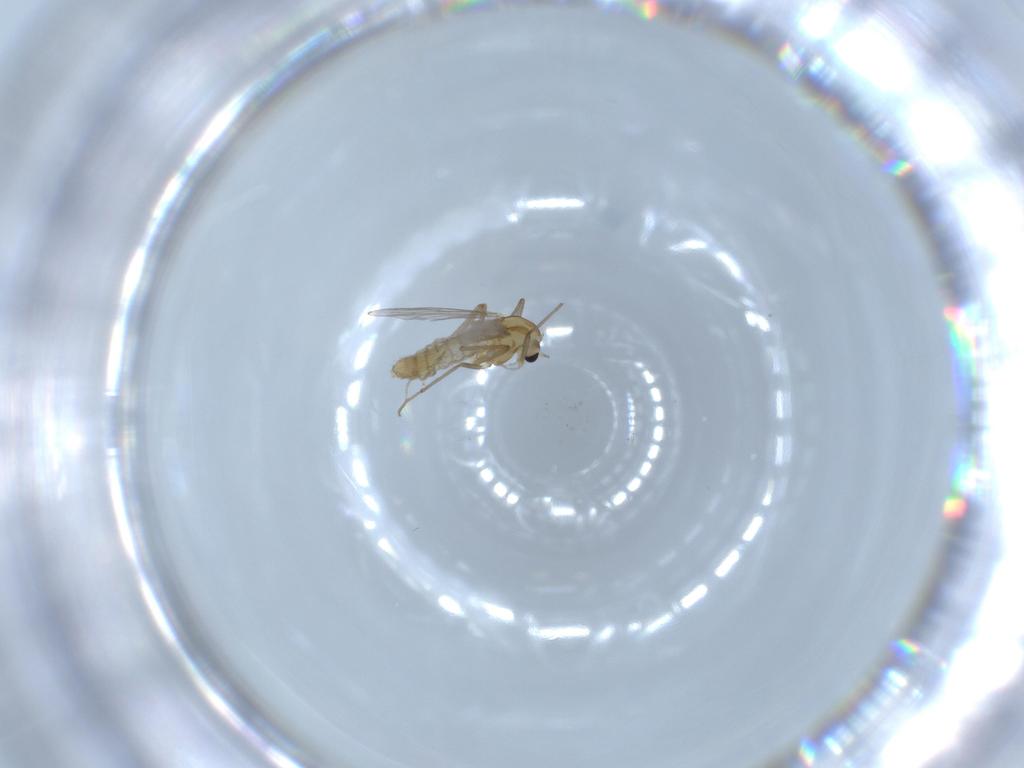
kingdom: Animalia
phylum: Arthropoda
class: Insecta
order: Diptera
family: Chironomidae
